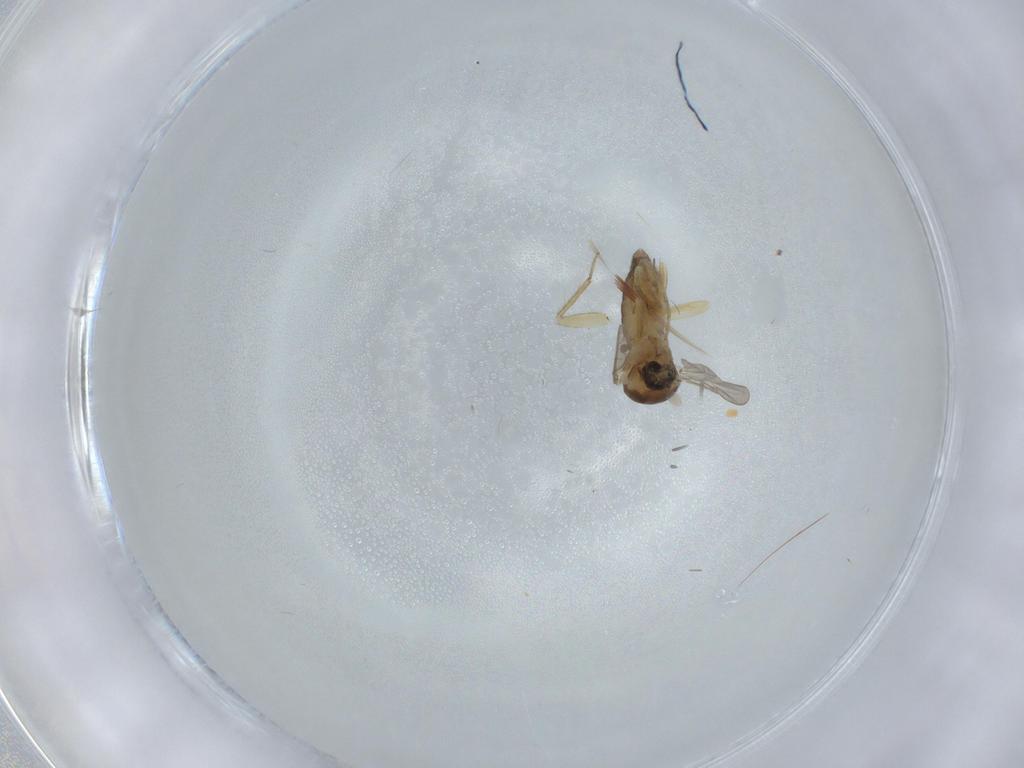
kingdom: Animalia
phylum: Arthropoda
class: Insecta
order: Diptera
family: Ceratopogonidae
